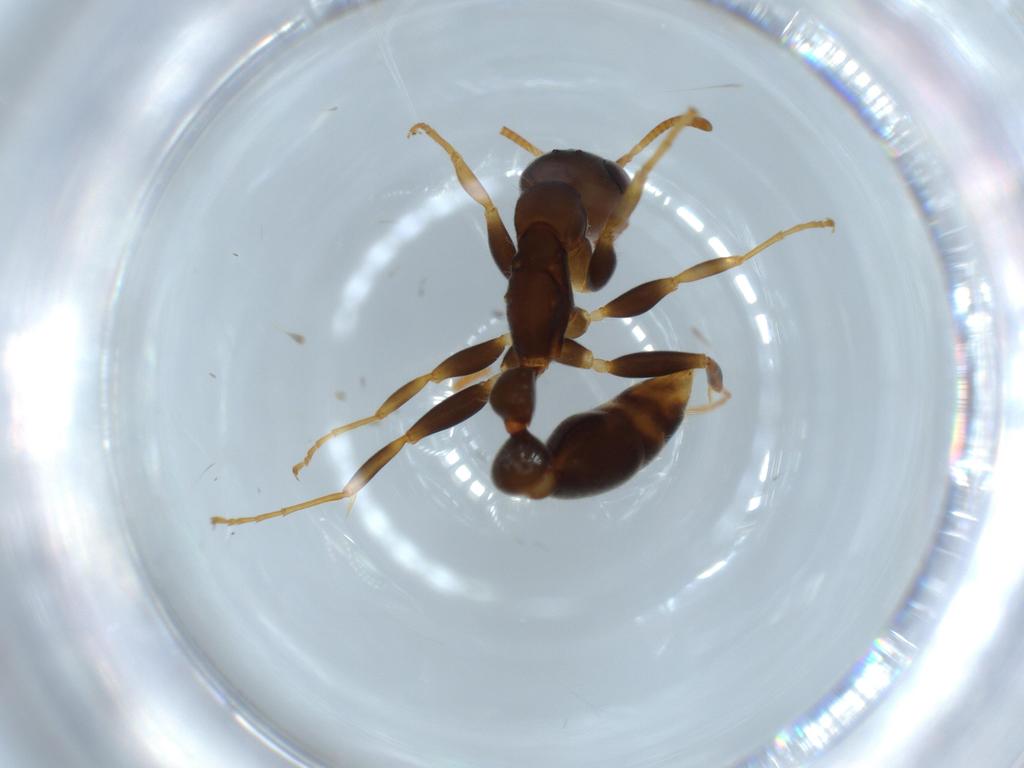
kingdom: Animalia
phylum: Arthropoda
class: Insecta
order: Hymenoptera
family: Formicidae
